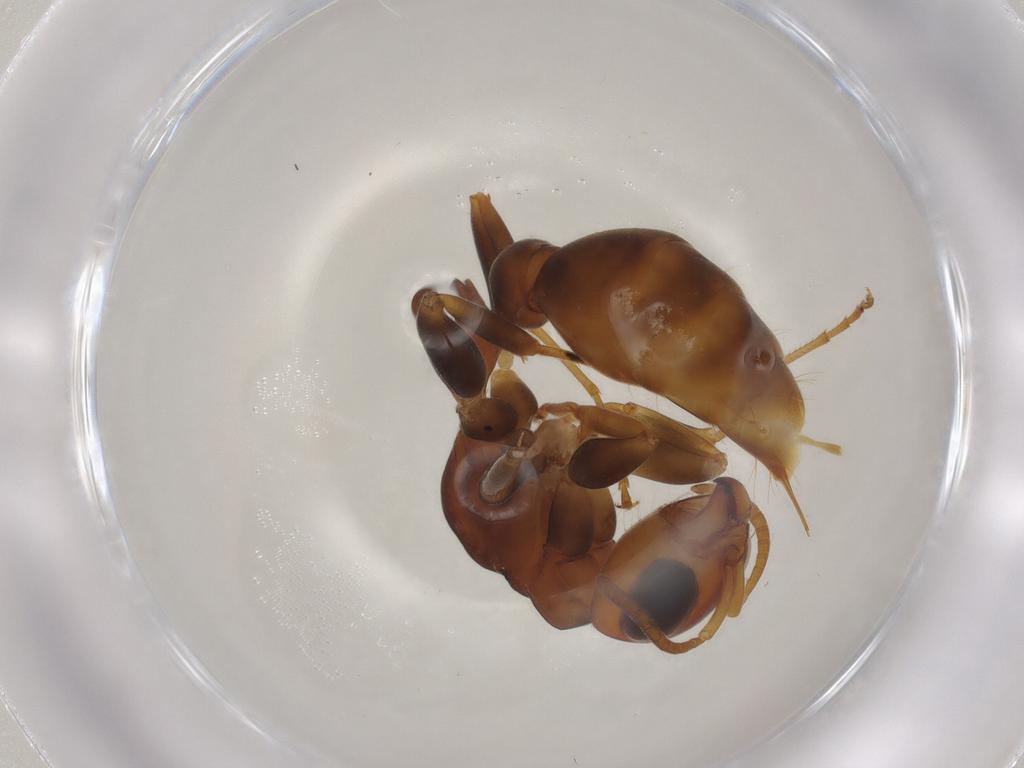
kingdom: Animalia
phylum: Arthropoda
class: Insecta
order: Hymenoptera
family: Formicidae
